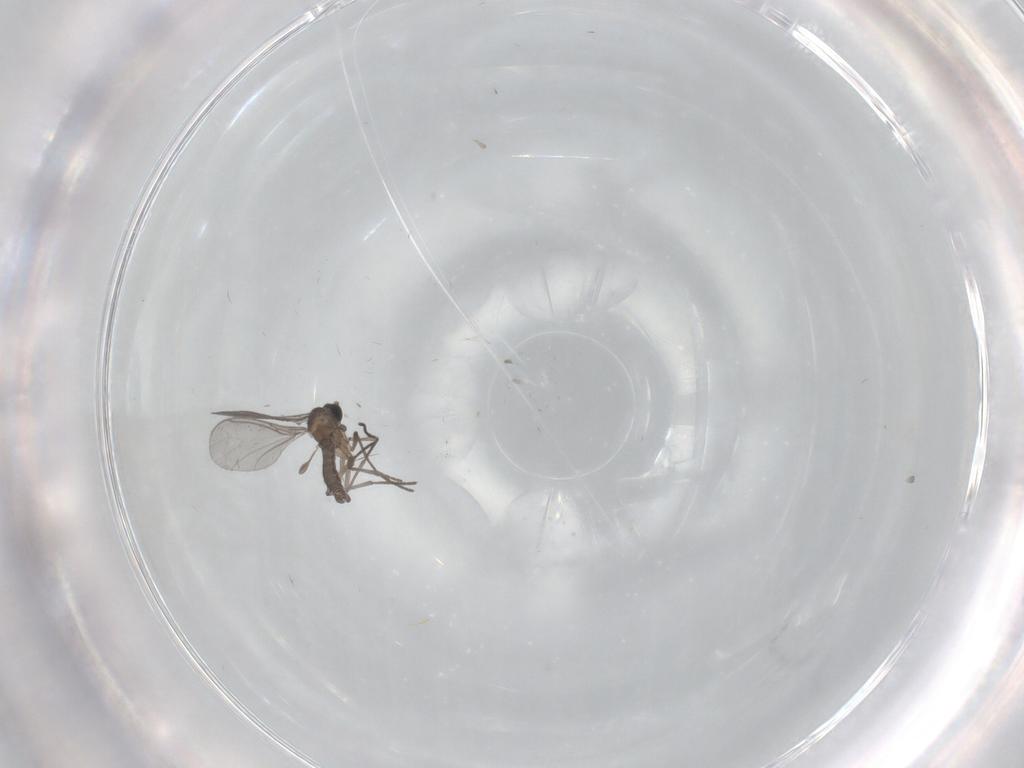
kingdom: Animalia
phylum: Arthropoda
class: Insecta
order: Diptera
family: Sciaridae
